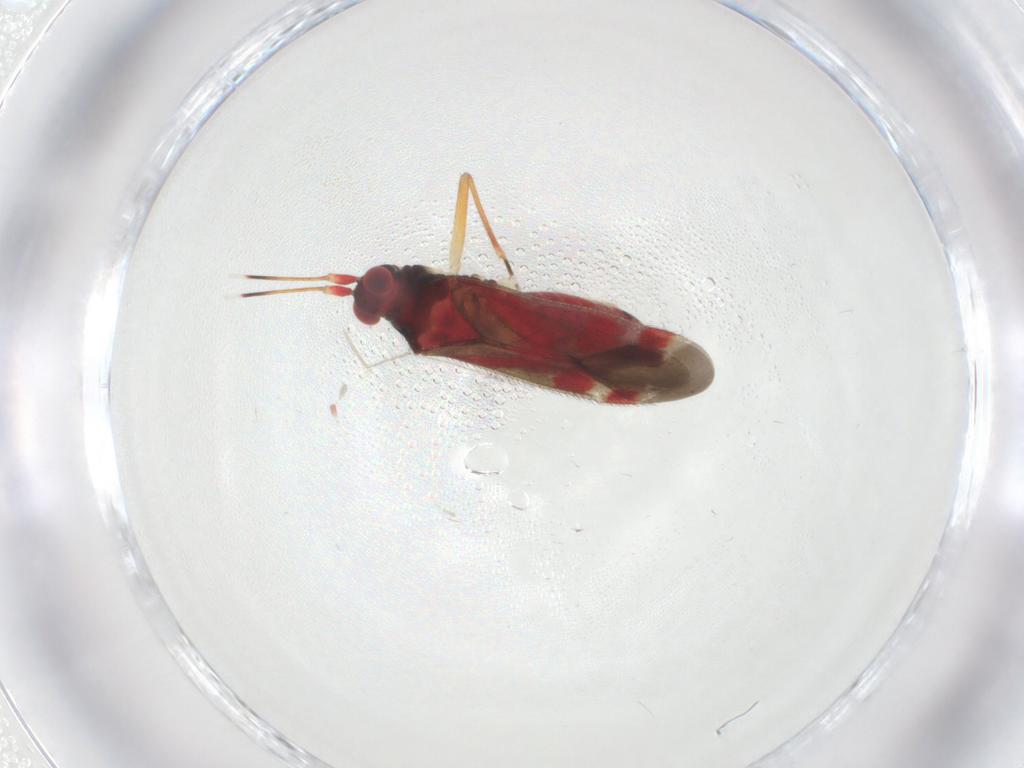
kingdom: Animalia
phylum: Arthropoda
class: Insecta
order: Hemiptera
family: Miridae
